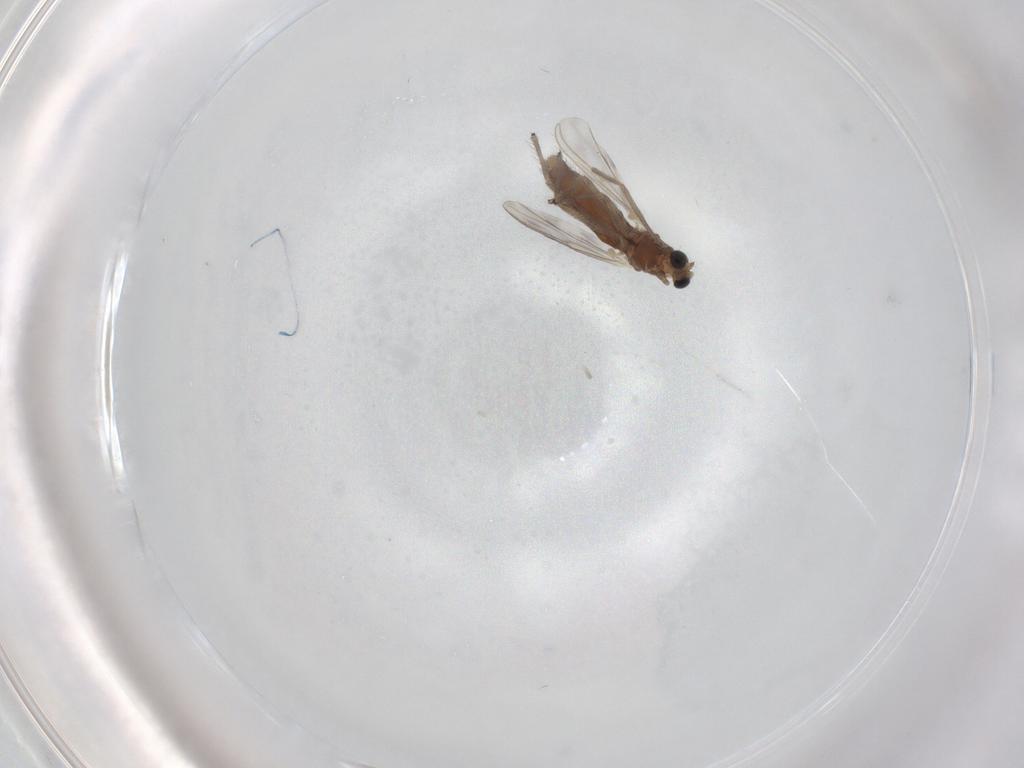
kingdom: Animalia
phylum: Arthropoda
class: Insecta
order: Diptera
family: Chironomidae
